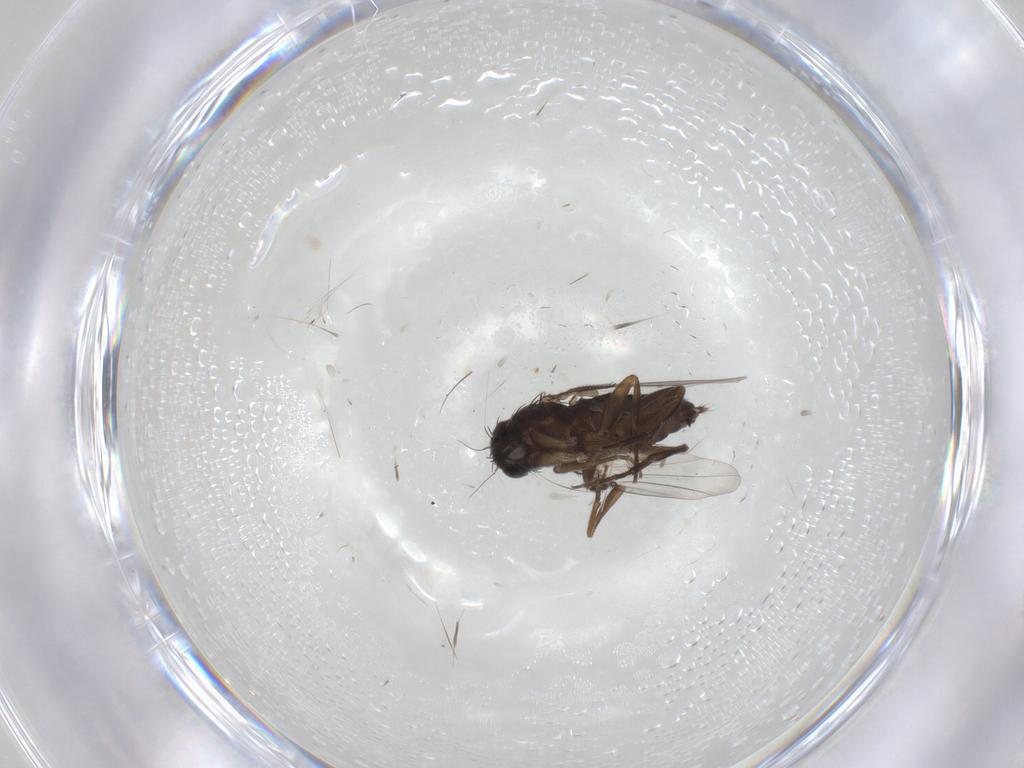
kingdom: Animalia
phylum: Arthropoda
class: Insecta
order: Diptera
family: Phoridae
